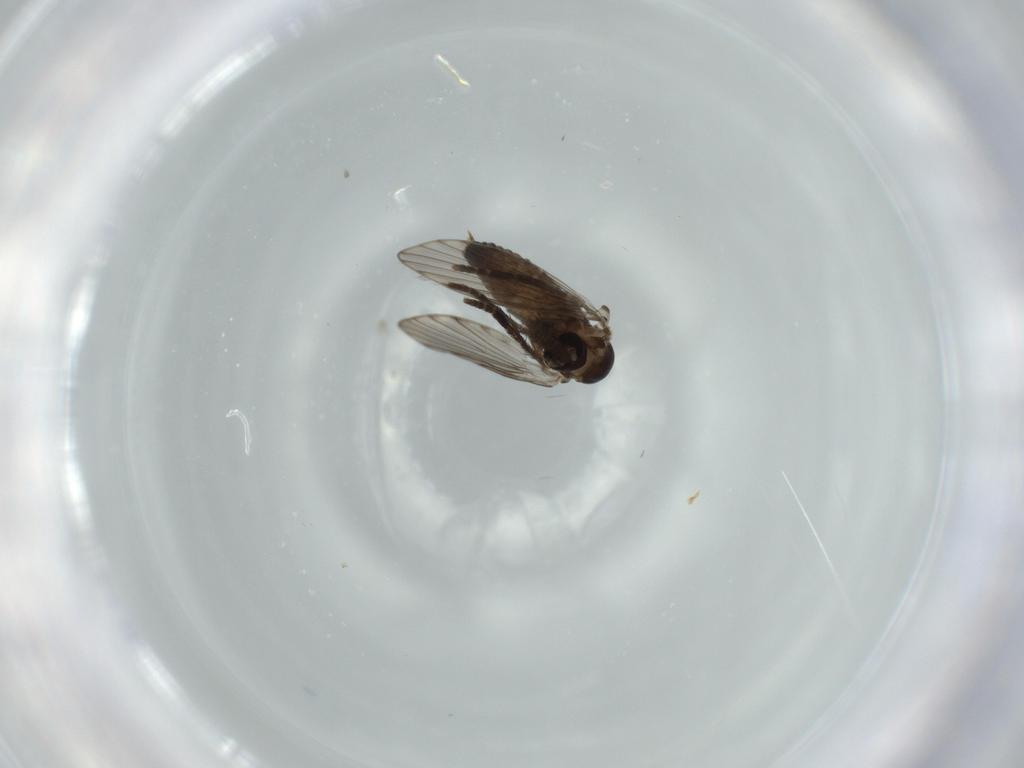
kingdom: Animalia
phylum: Arthropoda
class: Insecta
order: Diptera
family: Psychodidae
